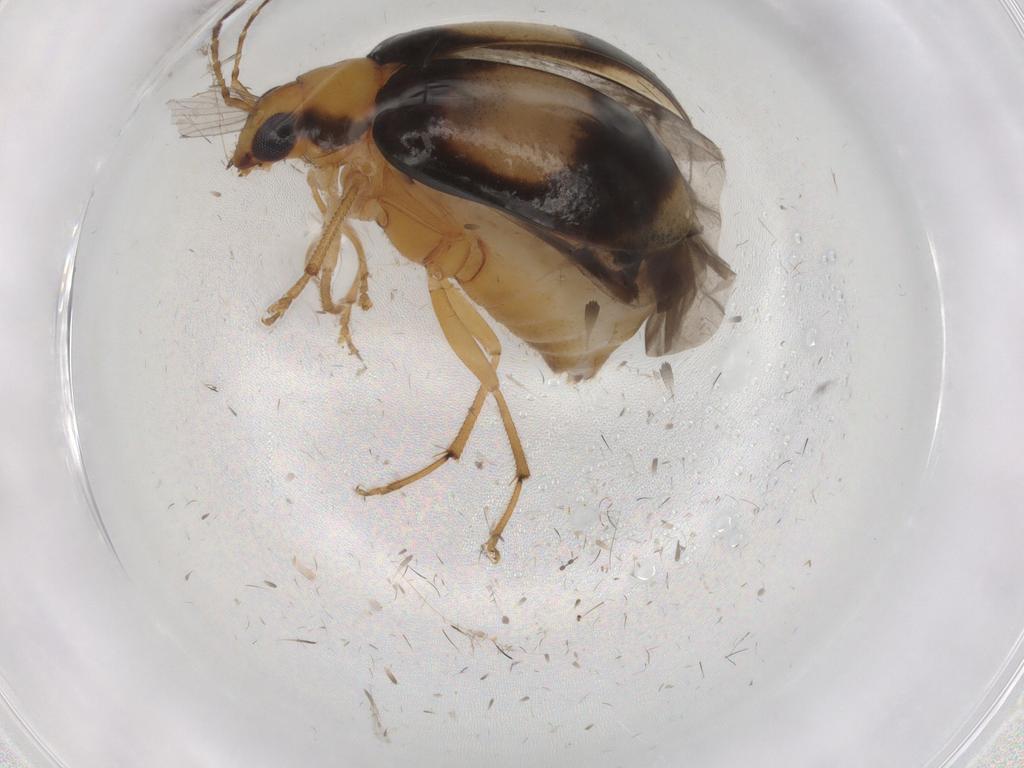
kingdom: Animalia
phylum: Arthropoda
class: Insecta
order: Coleoptera
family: Chrysomelidae
